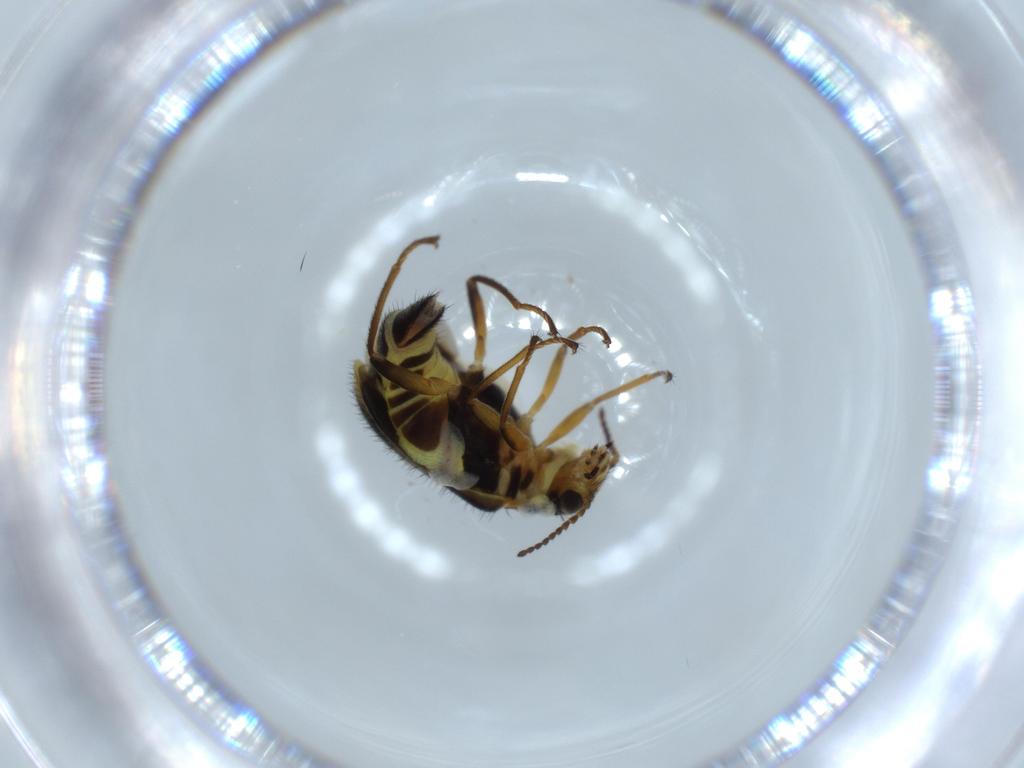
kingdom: Animalia
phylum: Arthropoda
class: Insecta
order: Coleoptera
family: Melyridae
